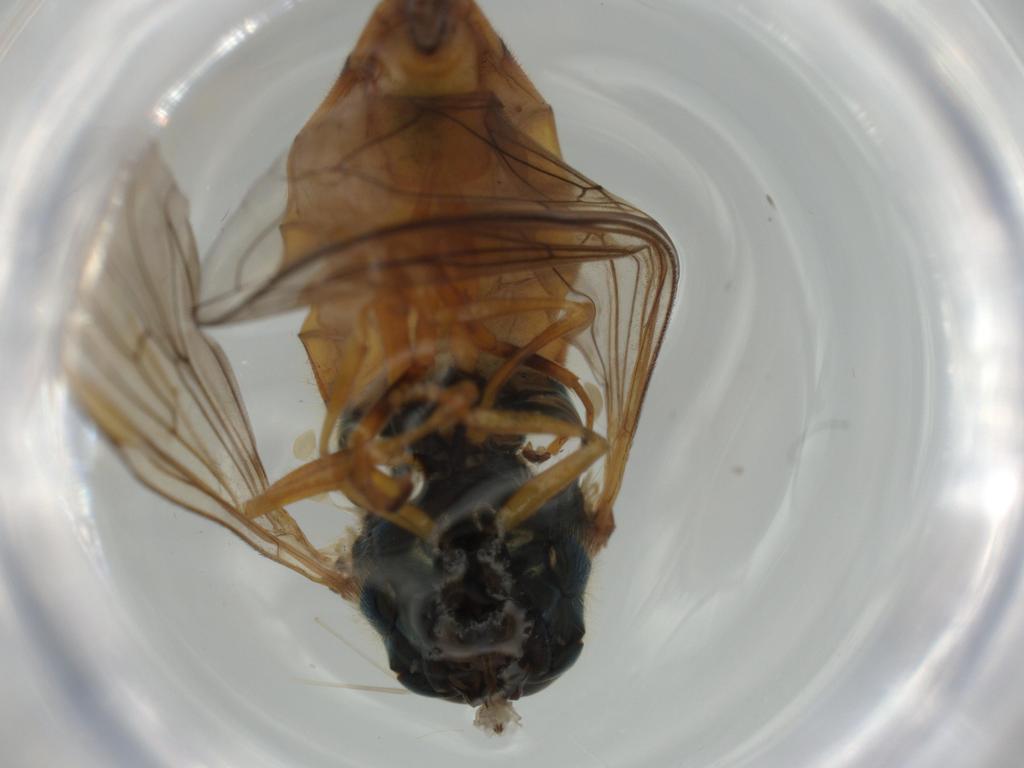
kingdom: Animalia
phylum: Arthropoda
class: Insecta
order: Diptera
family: Syrphidae
